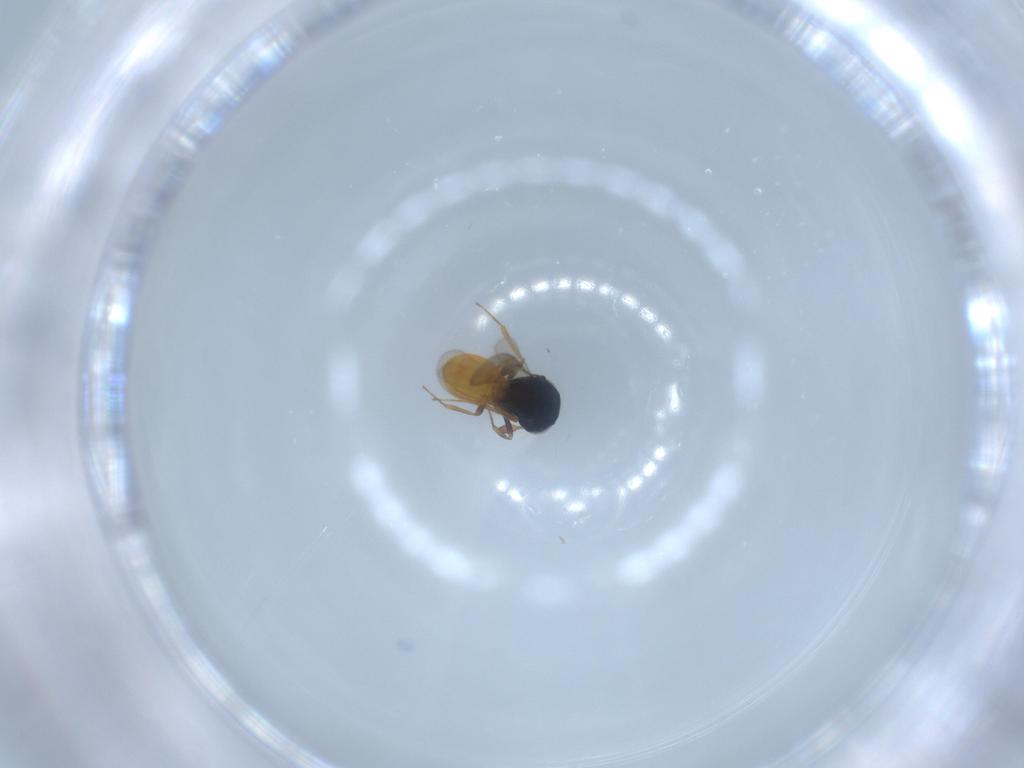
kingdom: Animalia
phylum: Arthropoda
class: Insecta
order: Hymenoptera
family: Scelionidae
